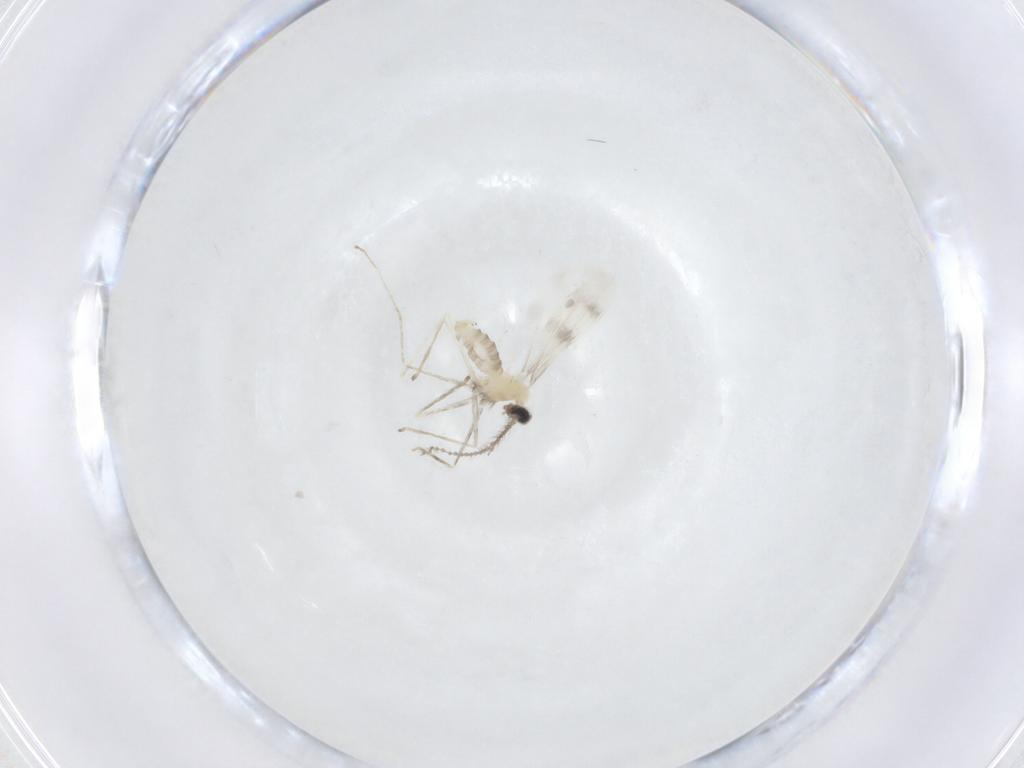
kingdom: Animalia
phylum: Arthropoda
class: Insecta
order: Diptera
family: Cecidomyiidae
